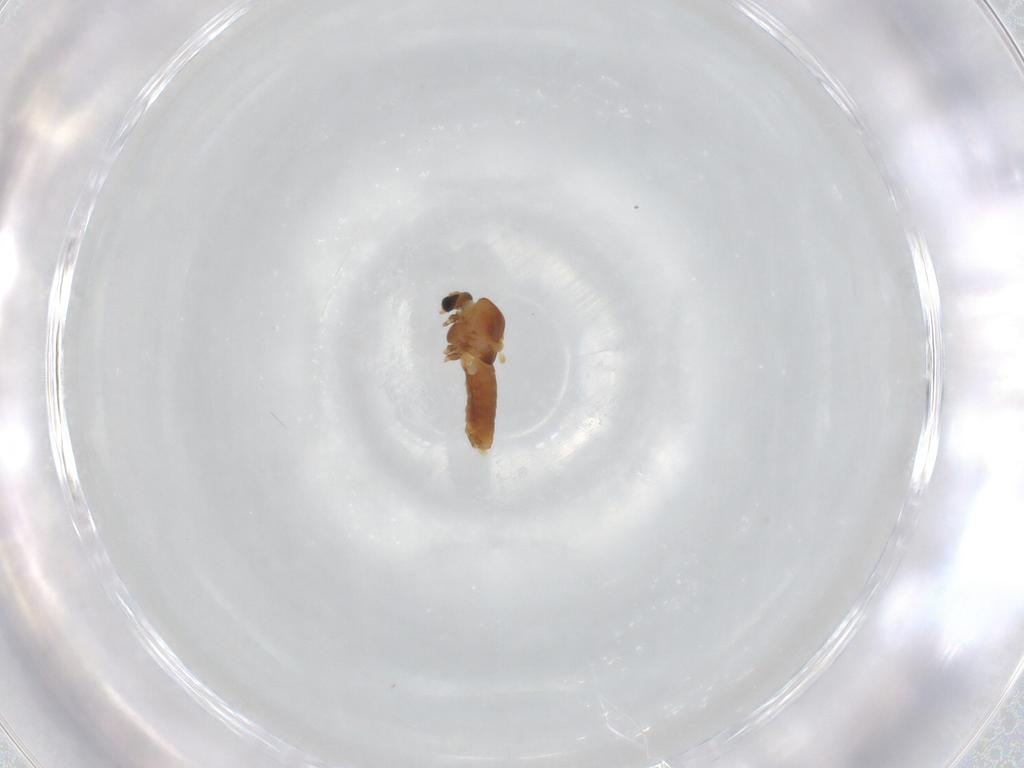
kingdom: Animalia
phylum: Arthropoda
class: Insecta
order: Diptera
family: Chironomidae
